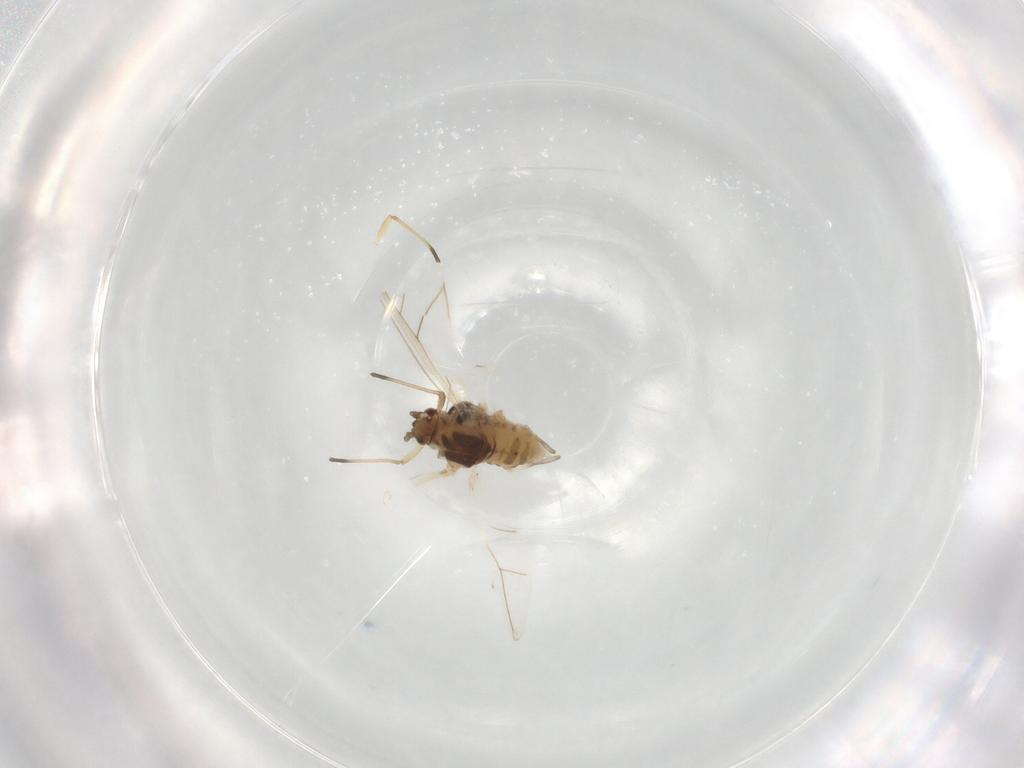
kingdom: Animalia
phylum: Arthropoda
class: Insecta
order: Hemiptera
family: Aphididae
